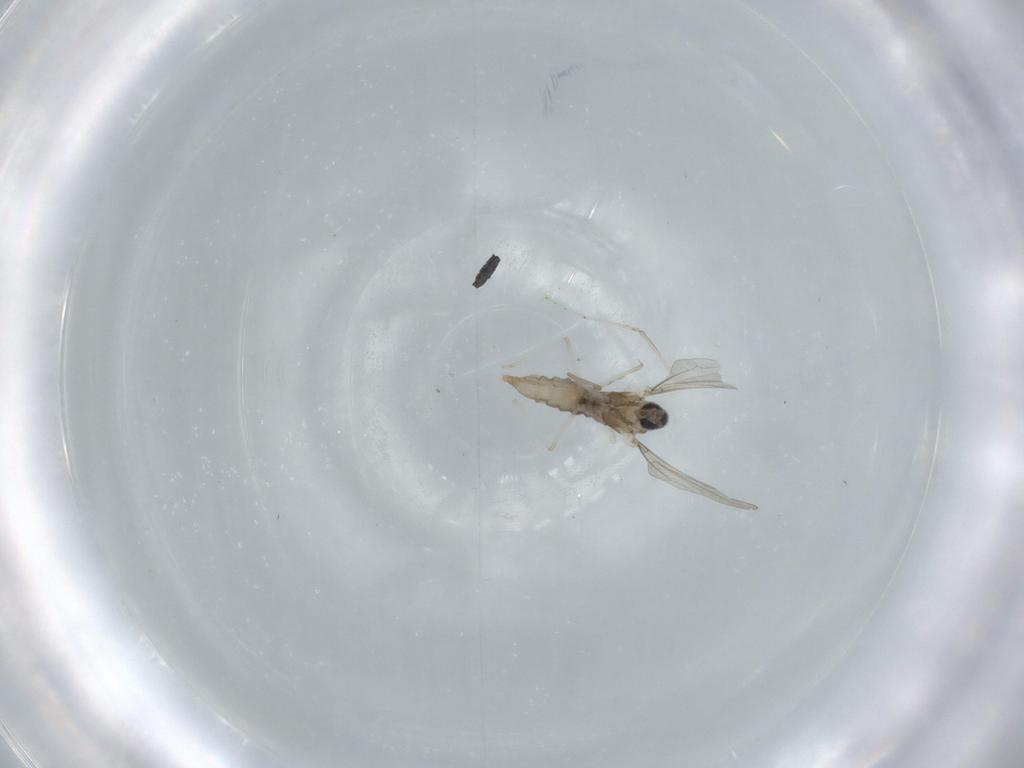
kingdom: Animalia
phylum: Arthropoda
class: Insecta
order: Diptera
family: Cecidomyiidae
